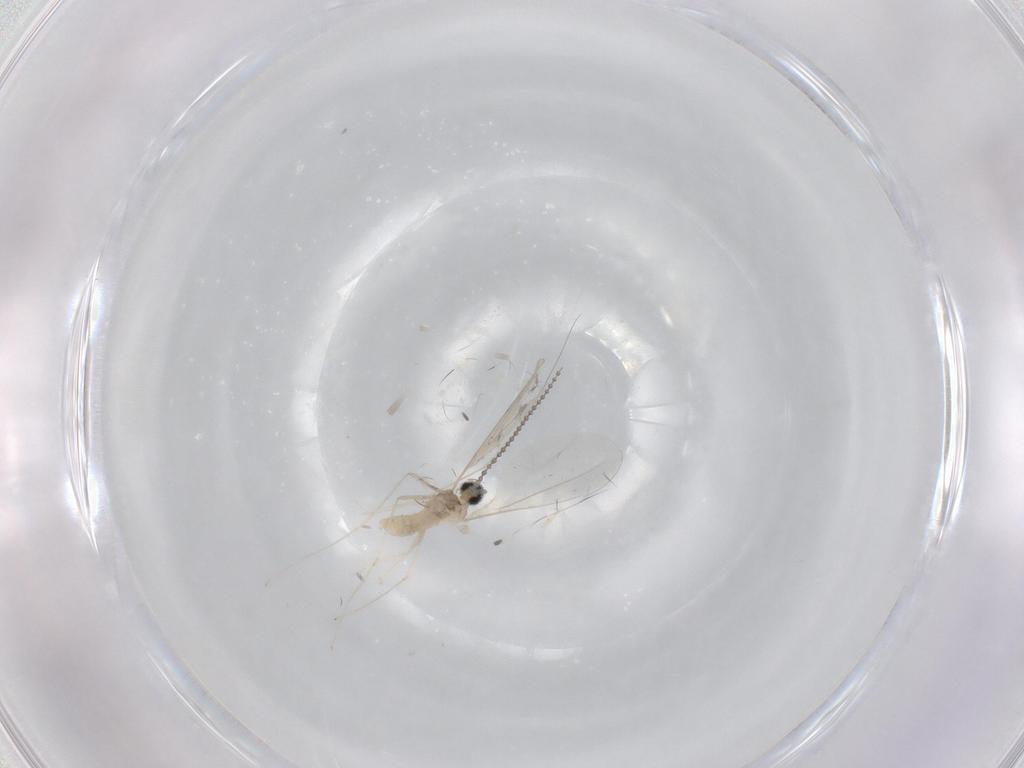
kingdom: Animalia
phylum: Arthropoda
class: Insecta
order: Diptera
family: Cecidomyiidae
